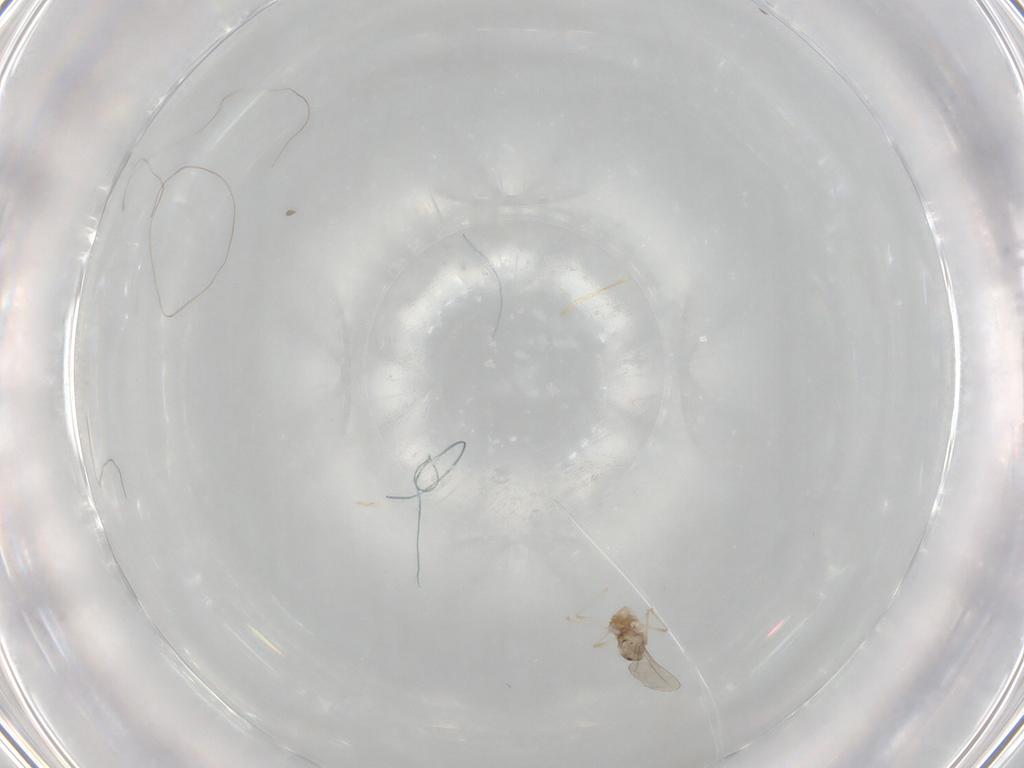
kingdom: Animalia
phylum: Arthropoda
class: Insecta
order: Diptera
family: Cecidomyiidae
